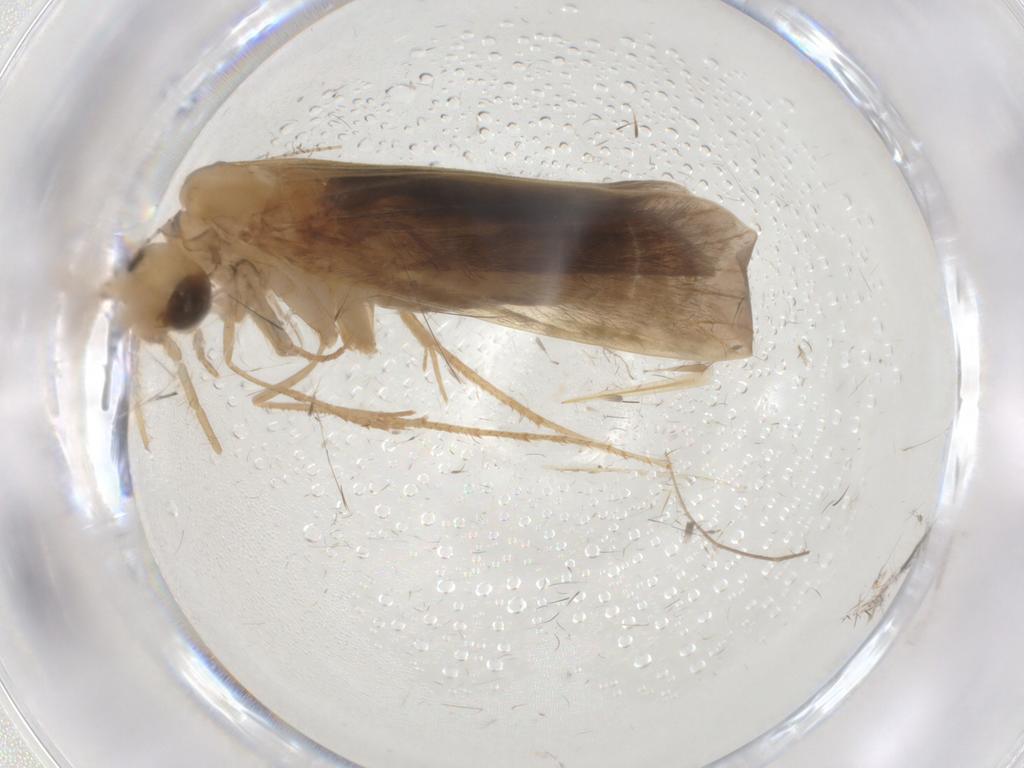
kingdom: Animalia
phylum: Arthropoda
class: Insecta
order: Trichoptera
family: Leptoceridae
